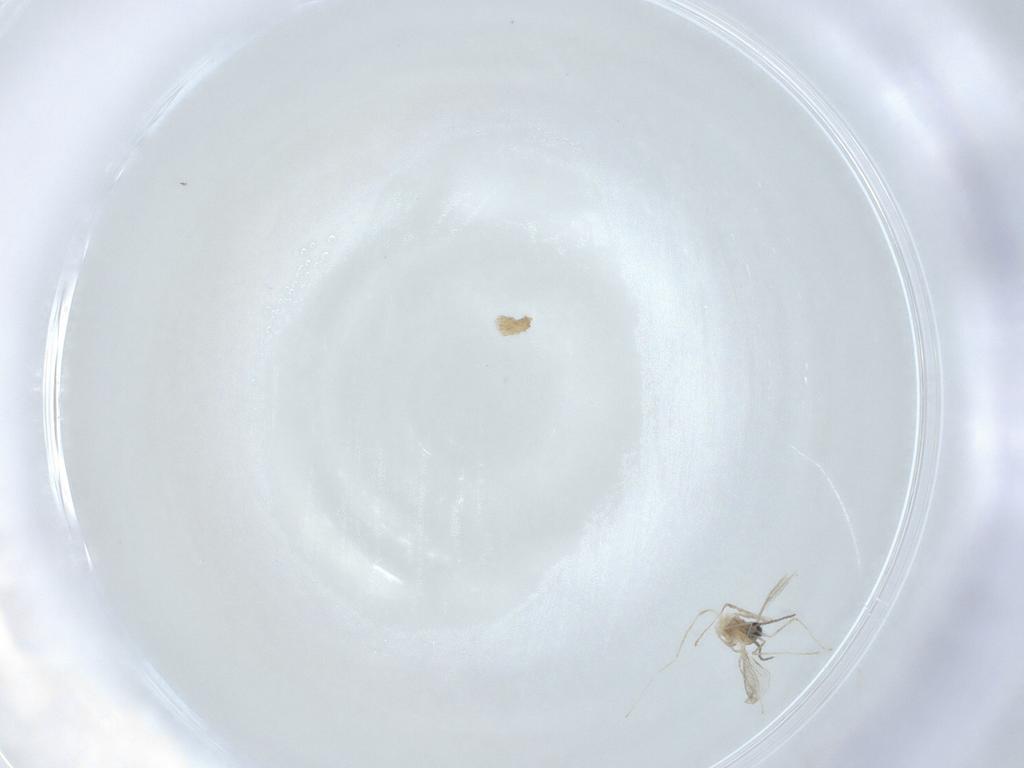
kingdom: Animalia
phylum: Arthropoda
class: Insecta
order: Diptera
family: Cecidomyiidae
